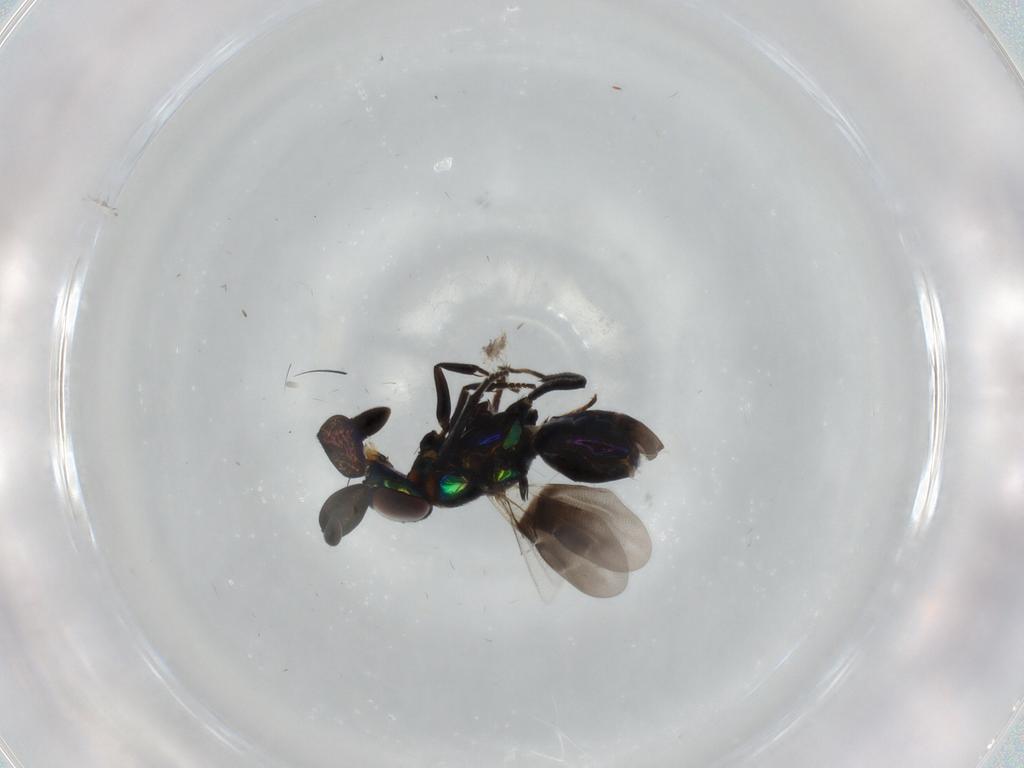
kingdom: Animalia
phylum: Arthropoda
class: Insecta
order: Hymenoptera
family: Encyrtidae
